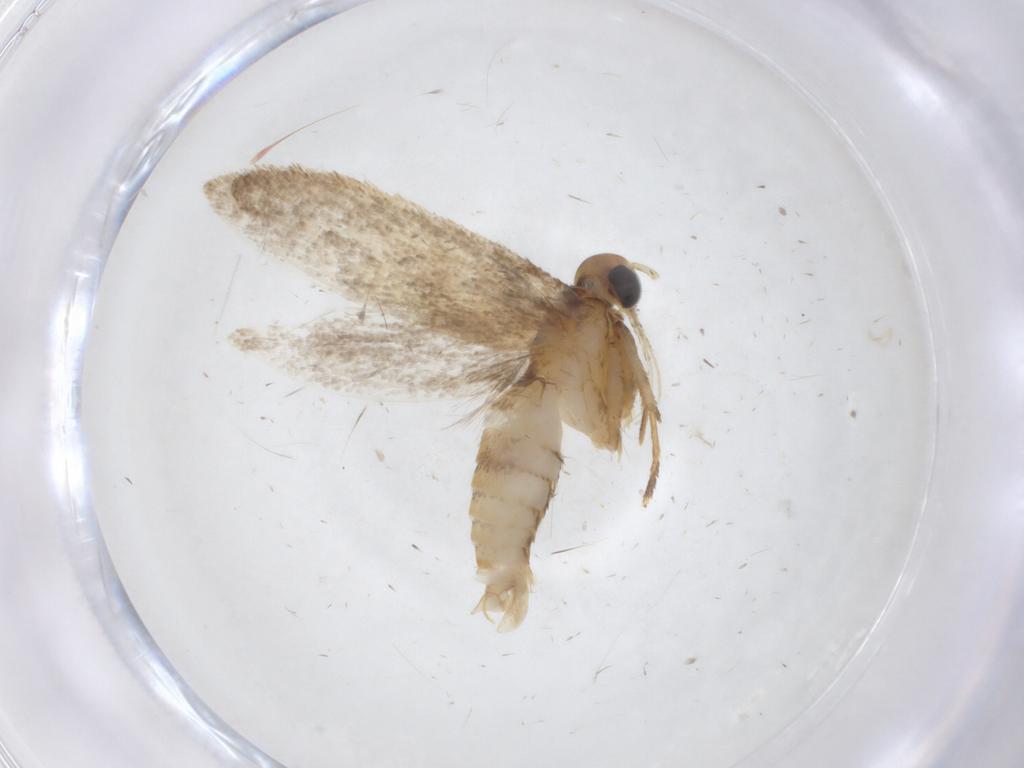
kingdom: Animalia
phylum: Arthropoda
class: Insecta
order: Lepidoptera
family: Oecophoridae
